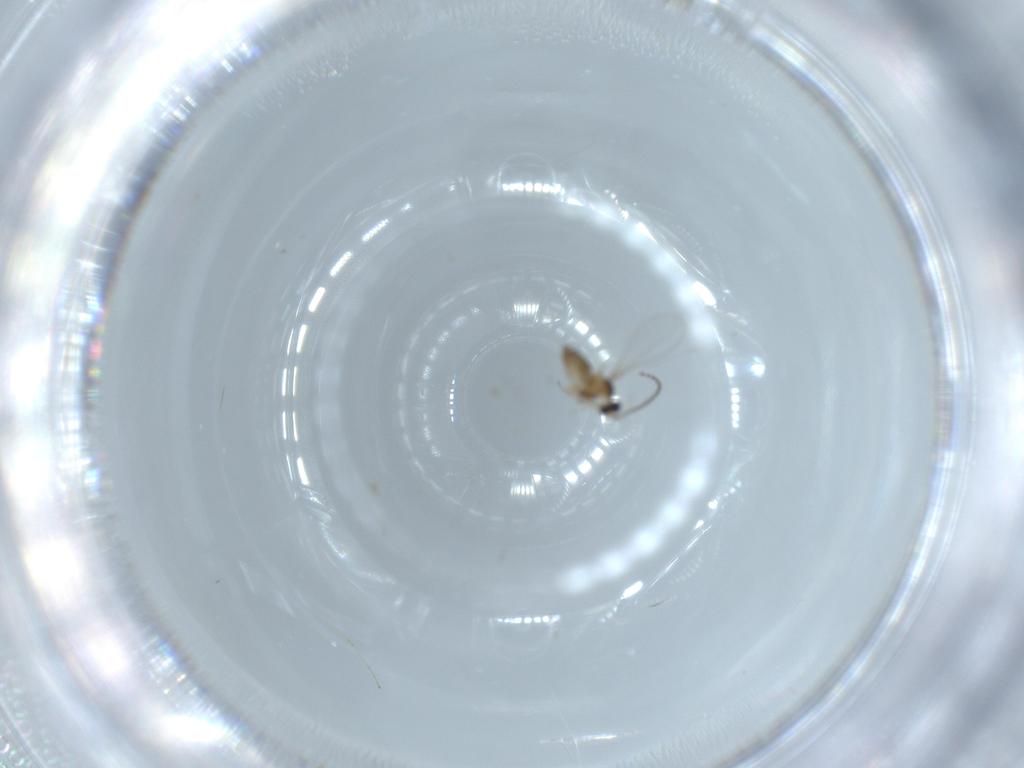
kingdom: Animalia
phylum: Arthropoda
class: Insecta
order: Diptera
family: Cecidomyiidae
